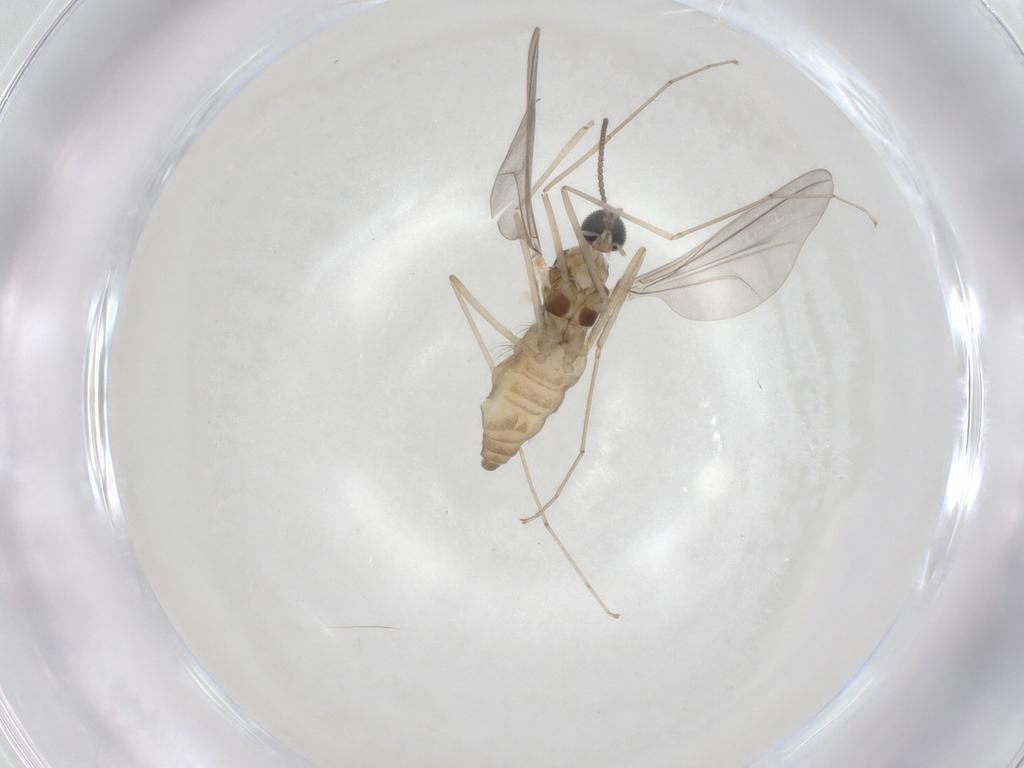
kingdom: Animalia
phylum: Arthropoda
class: Insecta
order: Diptera
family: Cecidomyiidae
